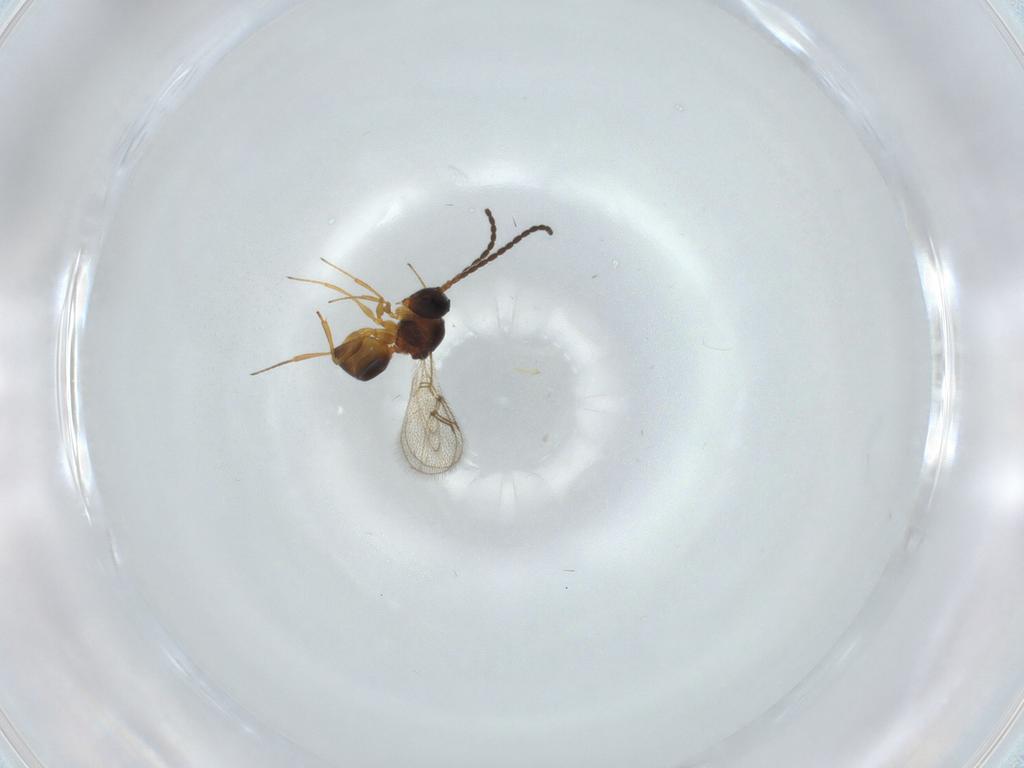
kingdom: Animalia
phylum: Arthropoda
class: Insecta
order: Hymenoptera
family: Figitidae
